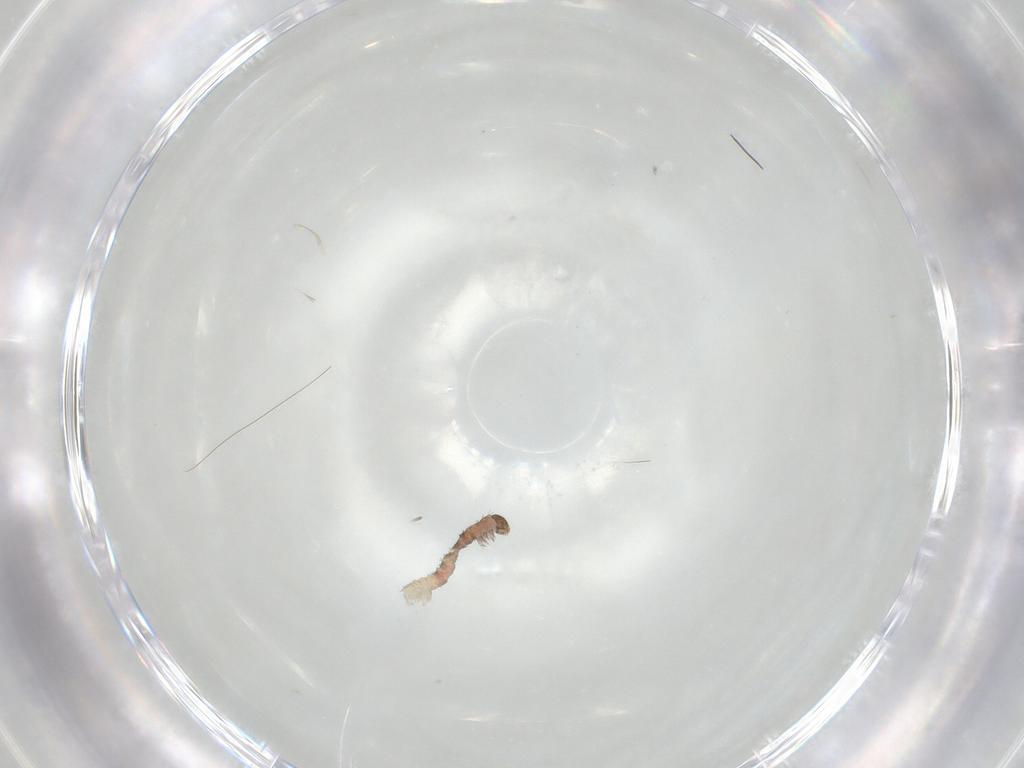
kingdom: Animalia
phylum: Arthropoda
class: Insecta
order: Lepidoptera
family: Geometridae
